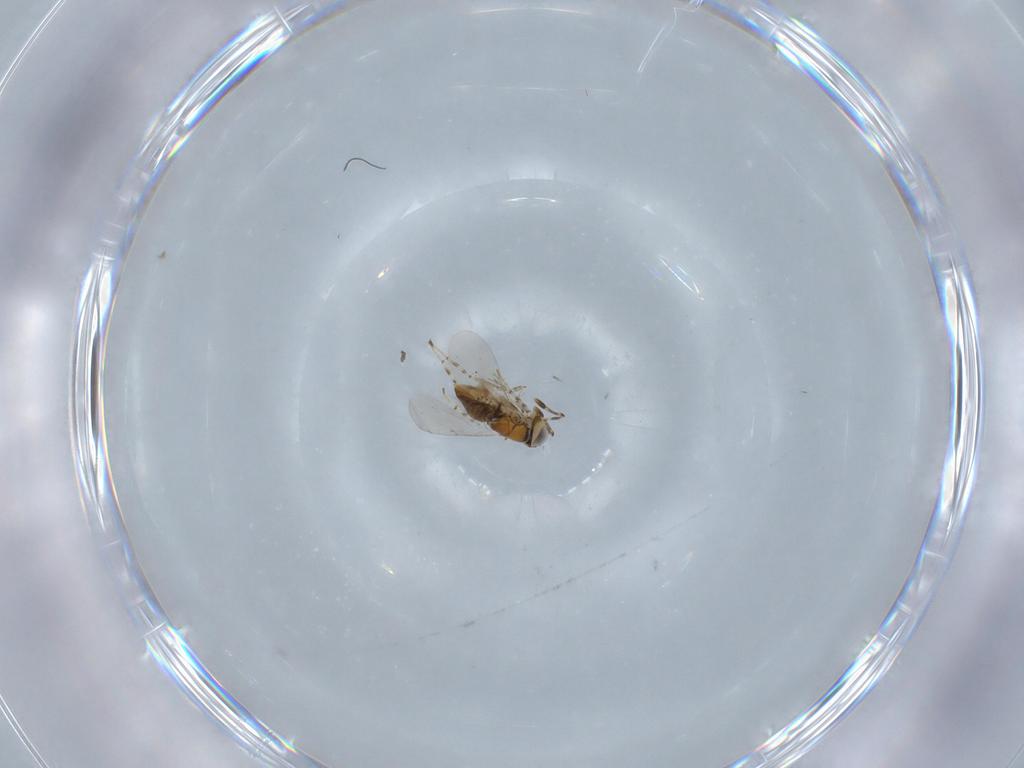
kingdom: Animalia
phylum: Arthropoda
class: Insecta
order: Hymenoptera
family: Encyrtidae
